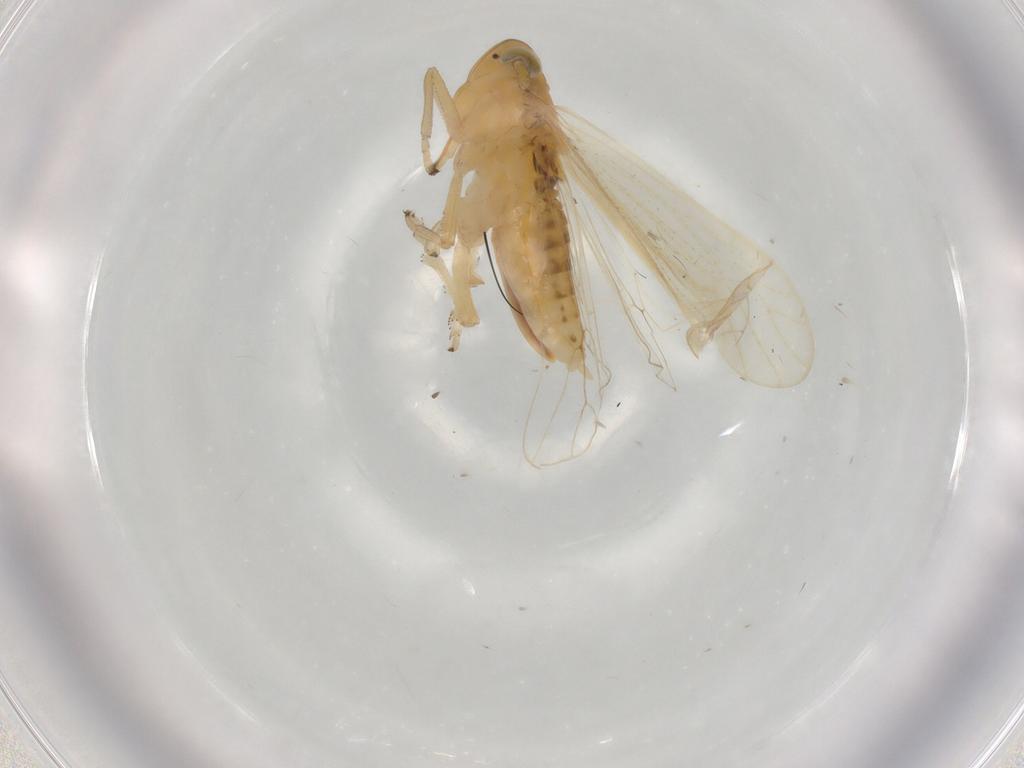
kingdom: Animalia
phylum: Arthropoda
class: Insecta
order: Hemiptera
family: Delphacidae
